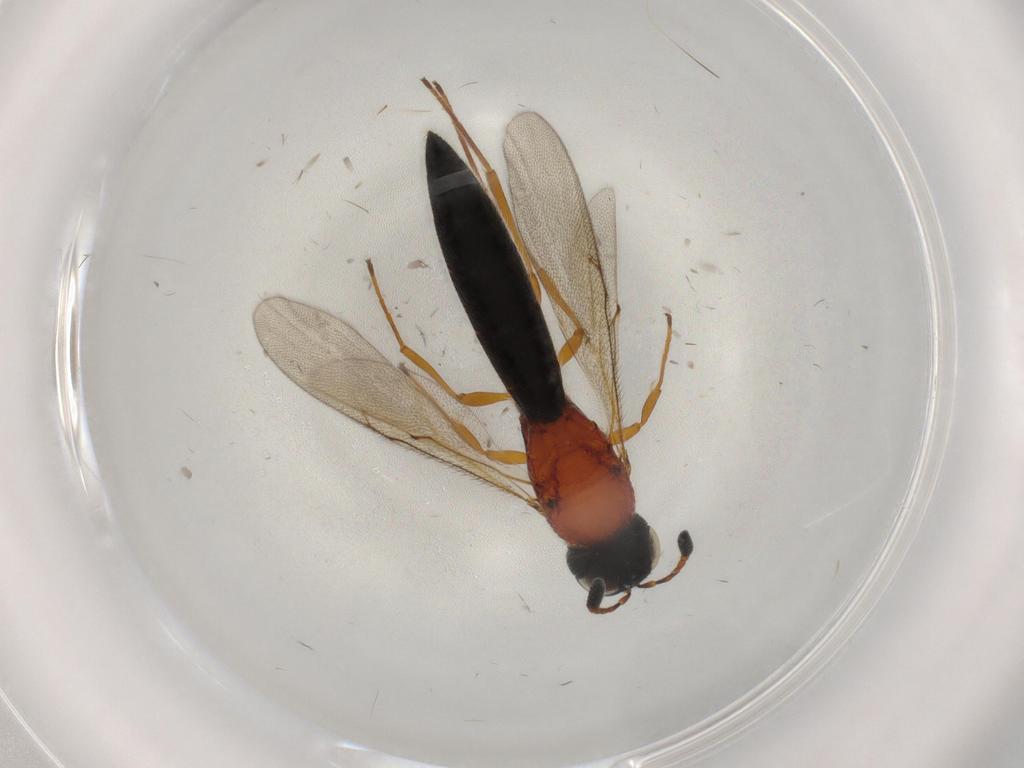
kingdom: Animalia
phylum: Arthropoda
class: Insecta
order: Hymenoptera
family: Scelionidae
